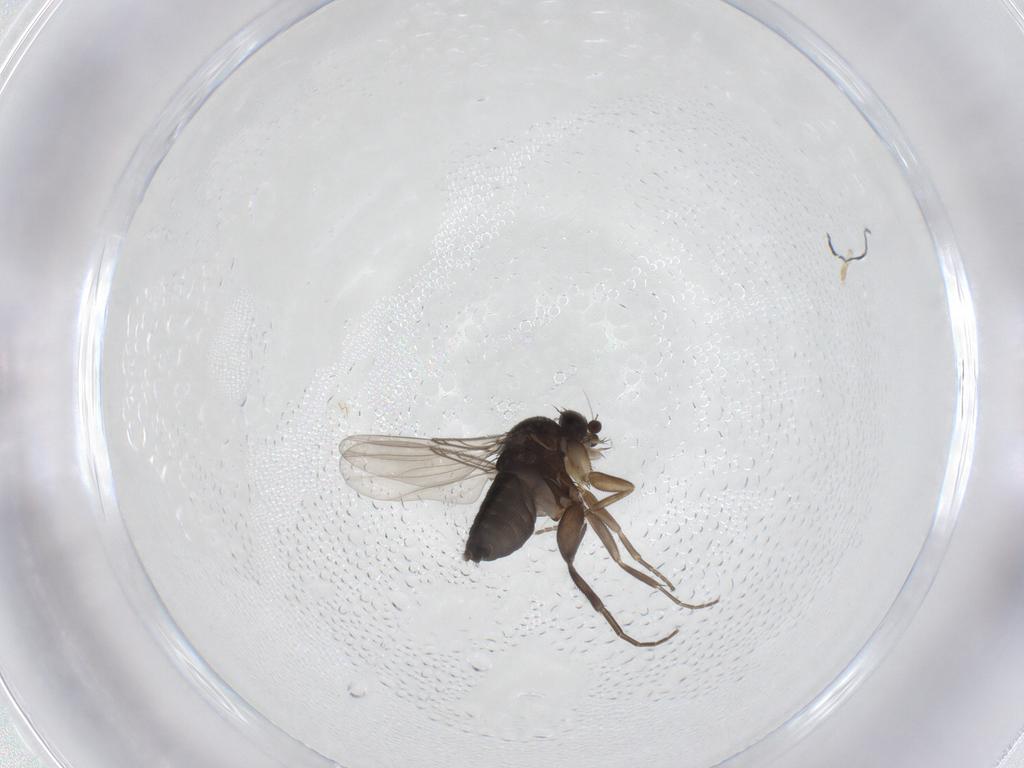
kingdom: Animalia
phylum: Arthropoda
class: Insecta
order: Diptera
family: Phoridae
